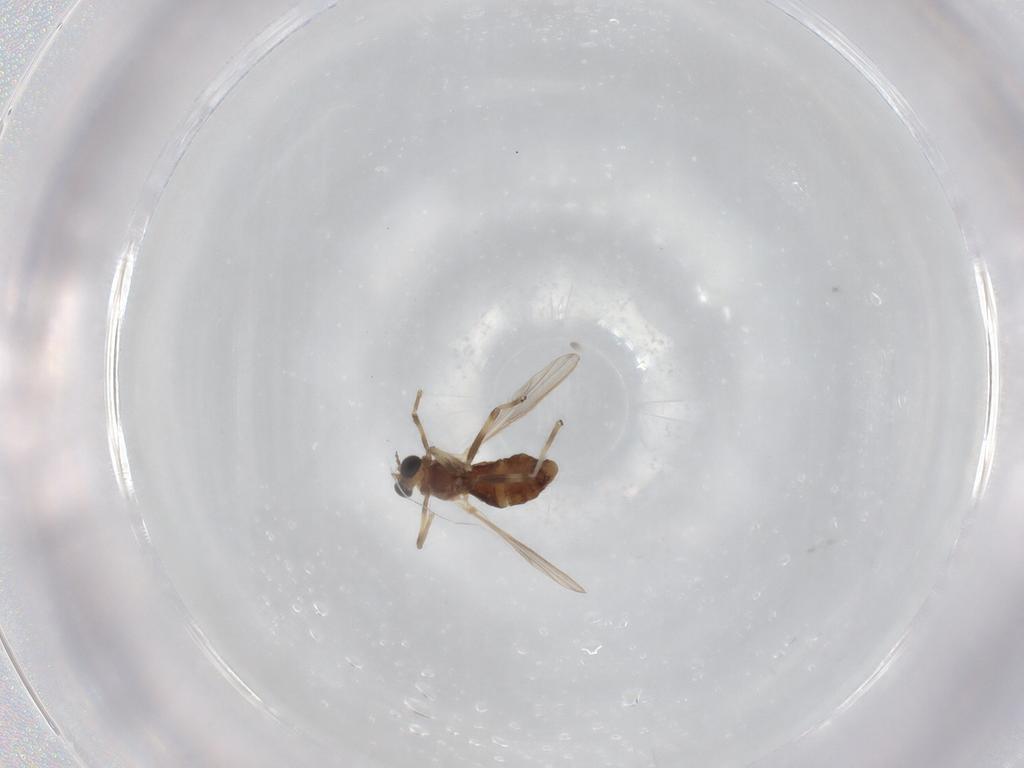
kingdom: Animalia
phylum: Arthropoda
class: Insecta
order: Diptera
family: Chironomidae
